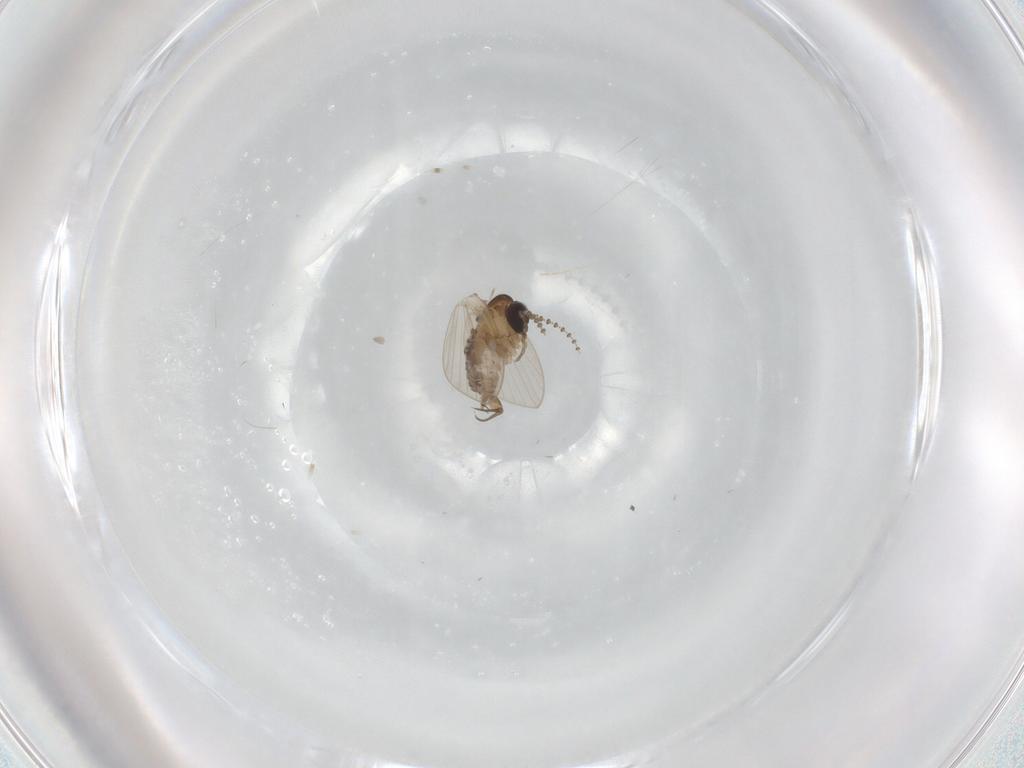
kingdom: Animalia
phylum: Arthropoda
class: Insecta
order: Diptera
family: Psychodidae
